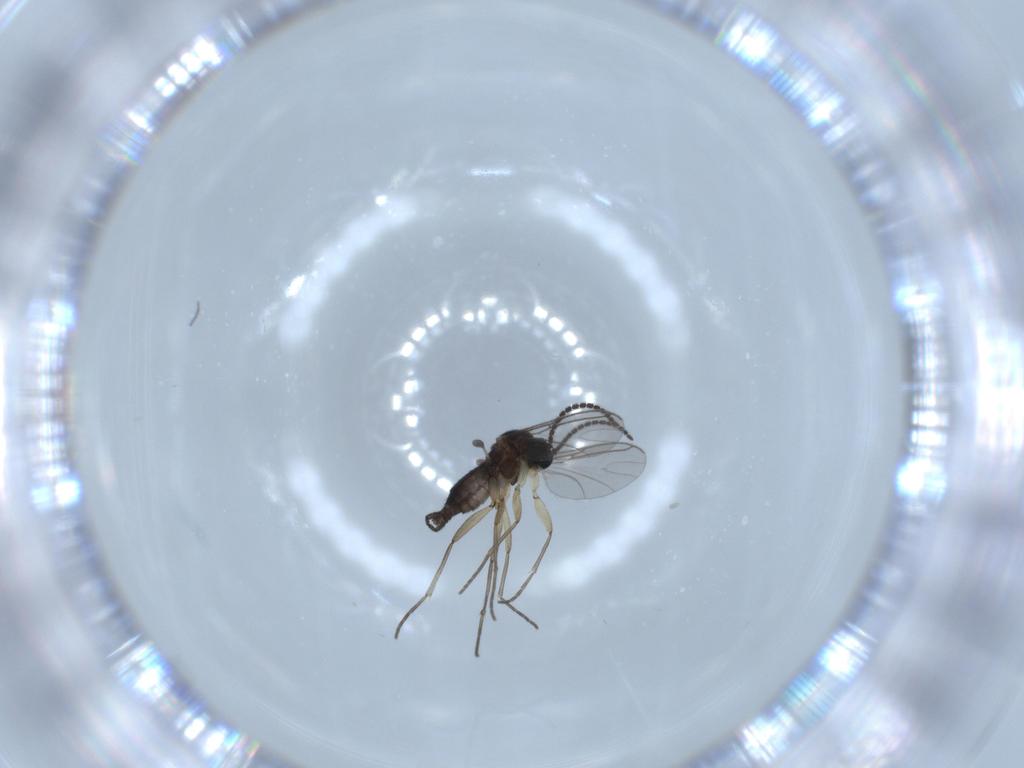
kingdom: Animalia
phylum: Arthropoda
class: Insecta
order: Diptera
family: Sciaridae
